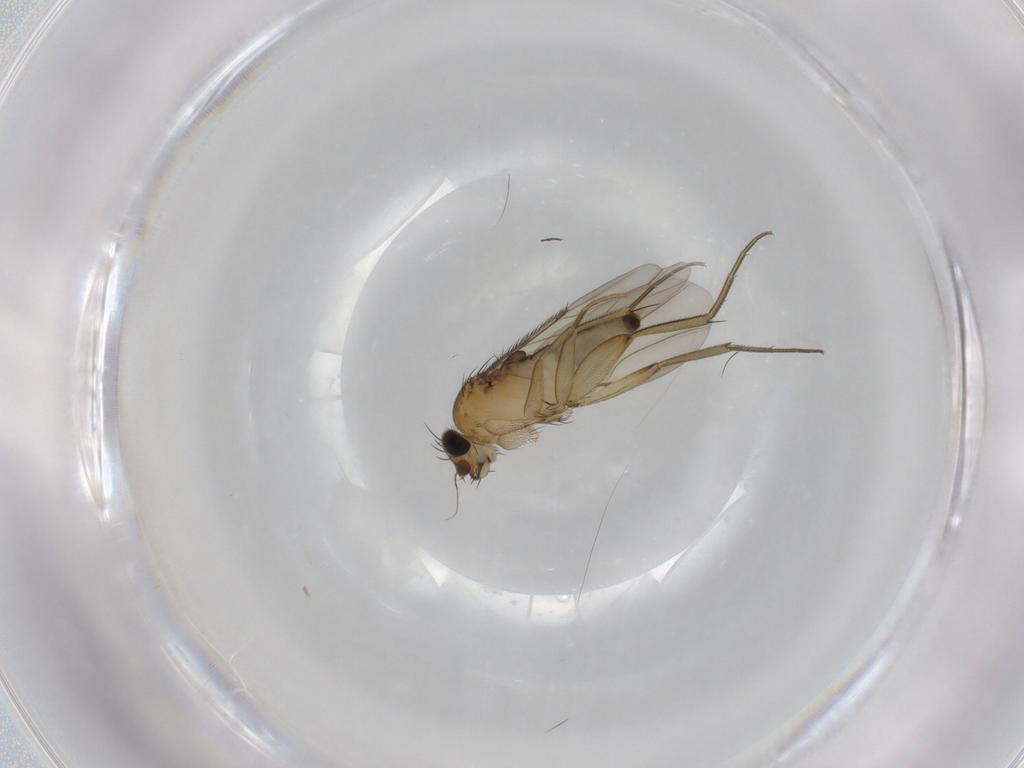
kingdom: Animalia
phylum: Arthropoda
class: Insecta
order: Diptera
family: Phoridae
